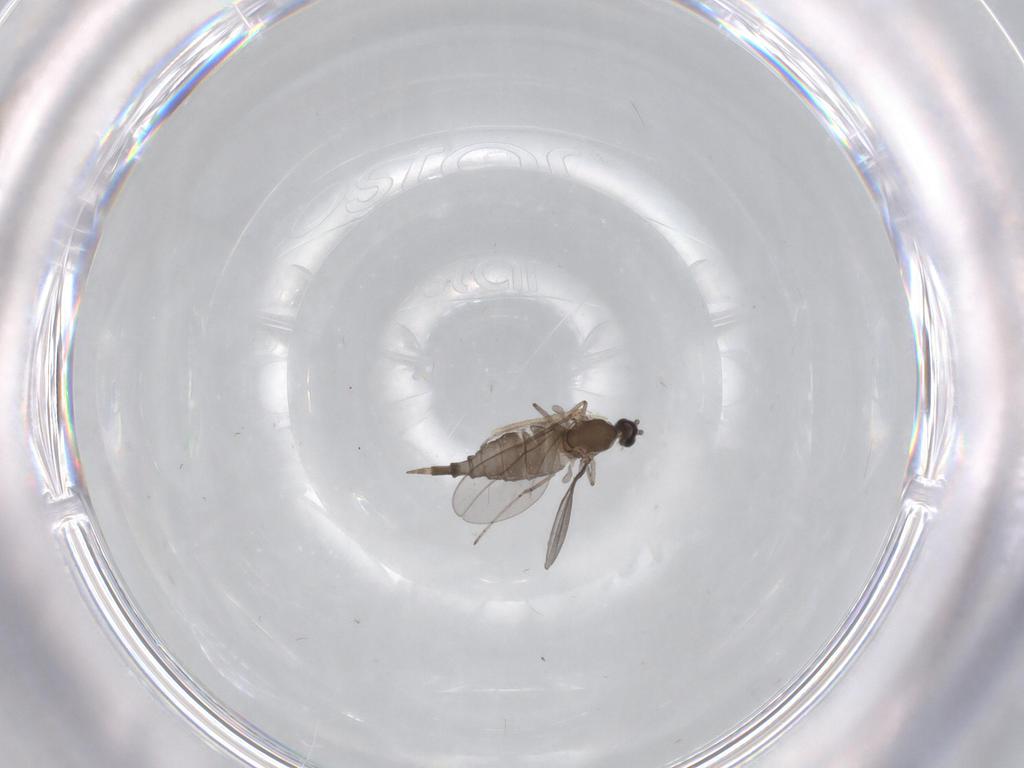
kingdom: Animalia
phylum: Arthropoda
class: Insecta
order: Diptera
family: Cecidomyiidae
